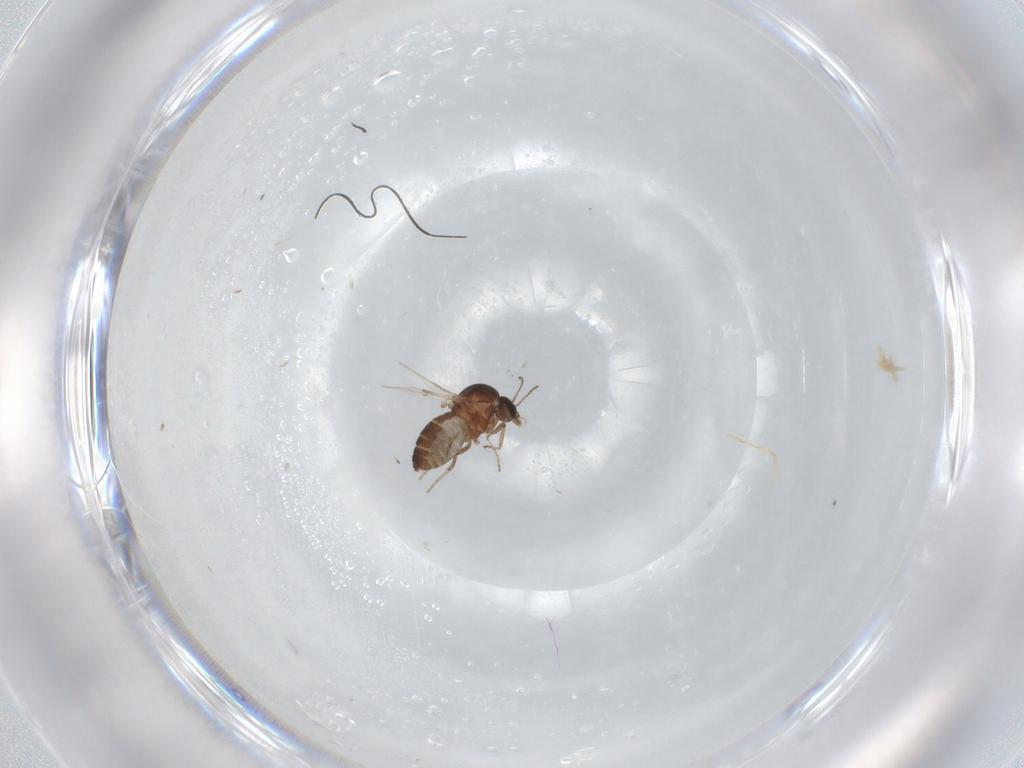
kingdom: Animalia
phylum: Arthropoda
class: Insecta
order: Diptera
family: Ceratopogonidae
